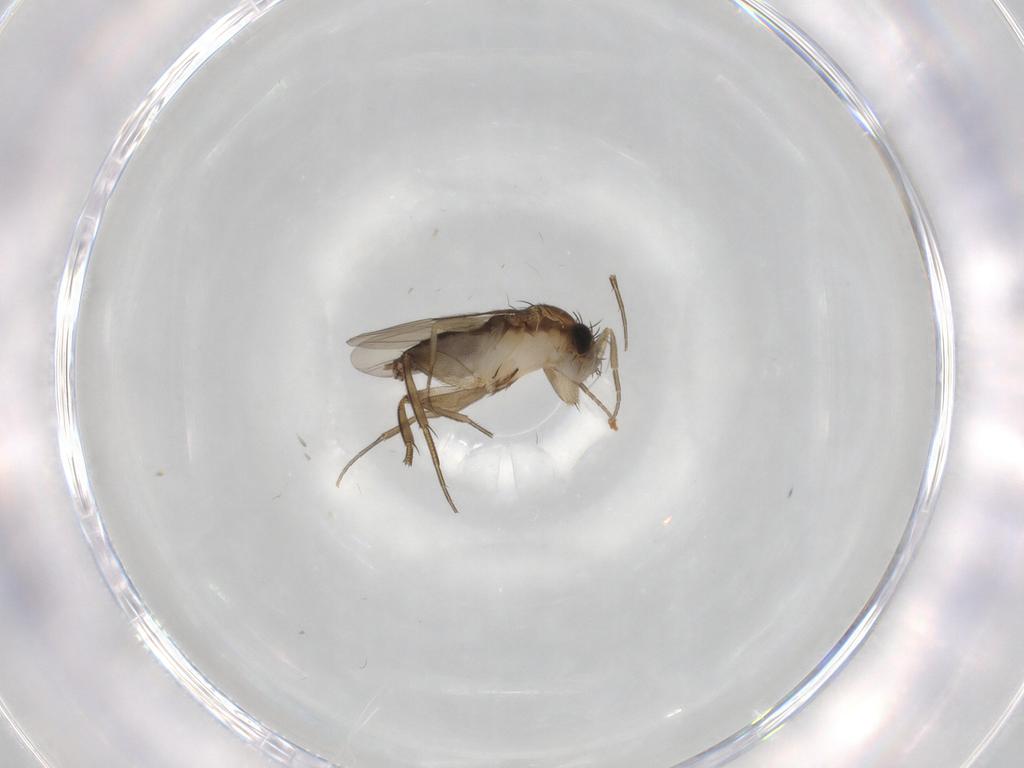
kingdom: Animalia
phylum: Arthropoda
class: Insecta
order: Diptera
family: Phoridae
